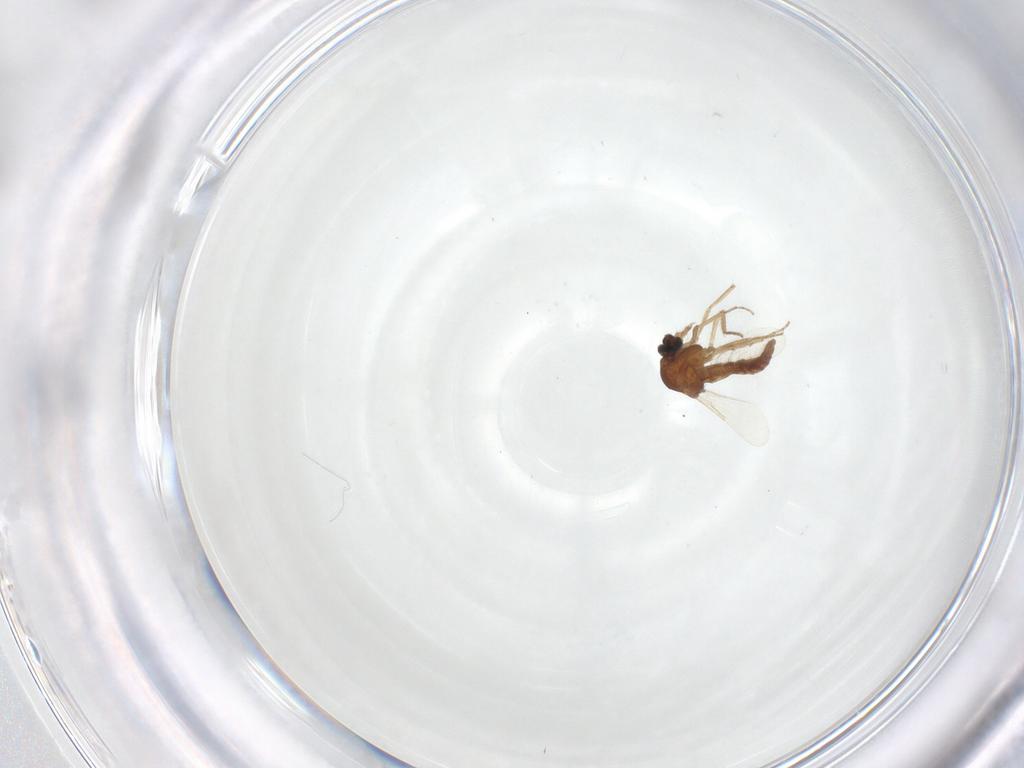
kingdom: Animalia
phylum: Arthropoda
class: Insecta
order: Diptera
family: Ceratopogonidae
